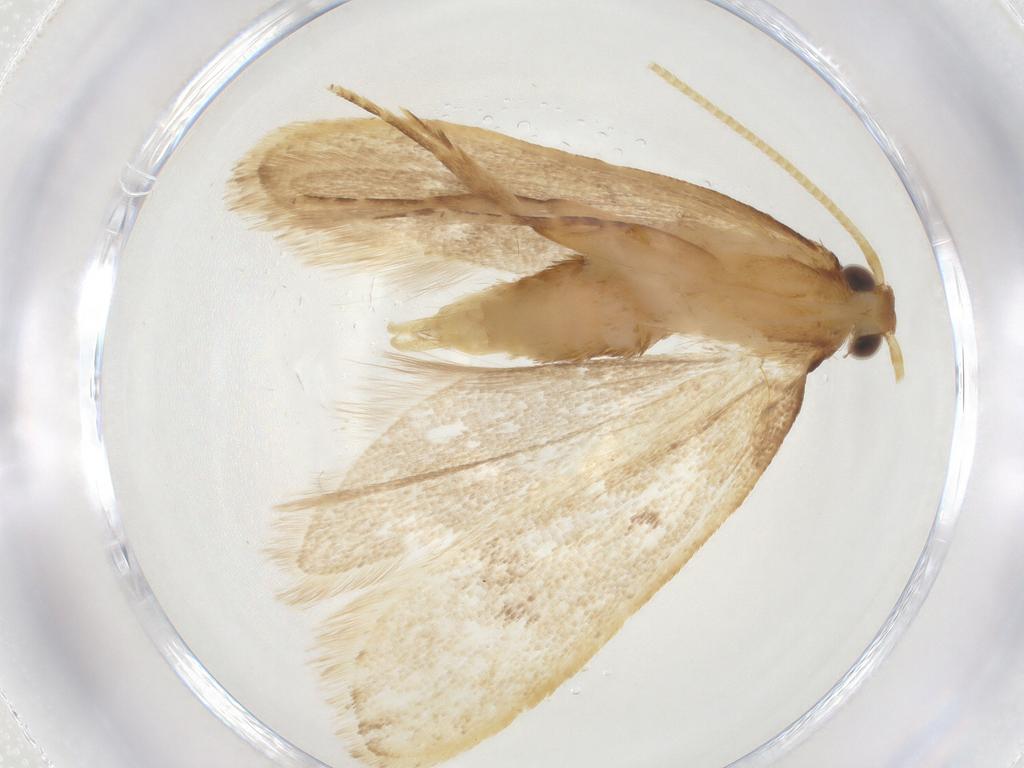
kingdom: Animalia
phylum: Arthropoda
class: Insecta
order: Lepidoptera
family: Lecithoceridae
